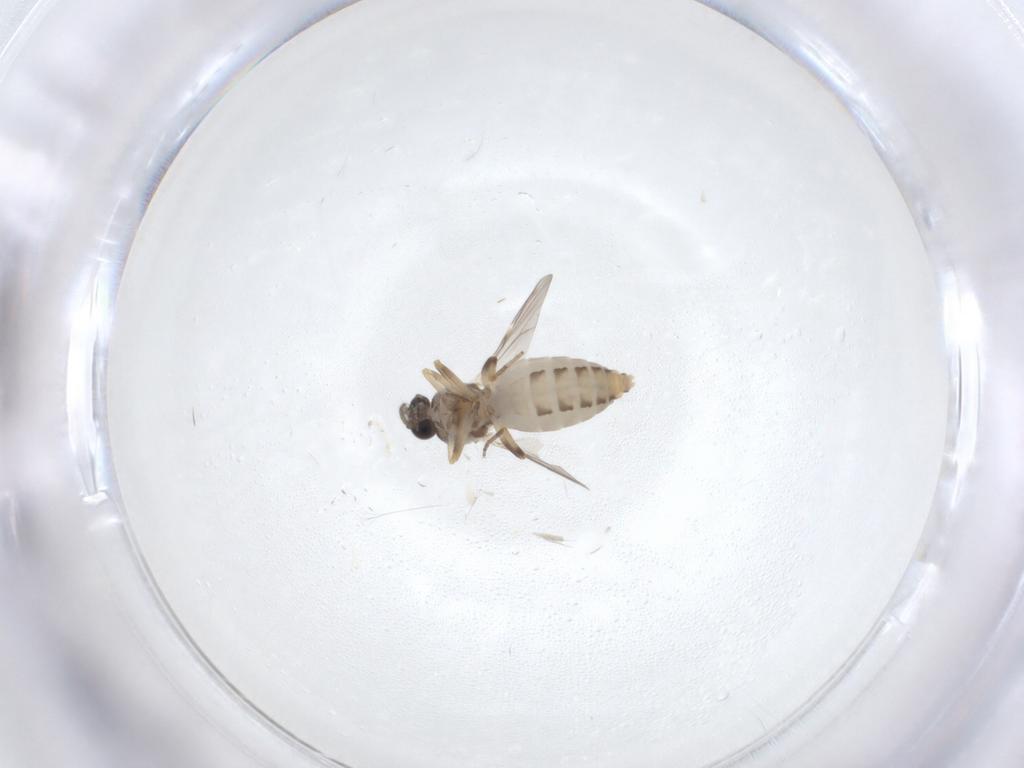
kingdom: Animalia
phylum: Arthropoda
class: Insecta
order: Diptera
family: Ceratopogonidae
